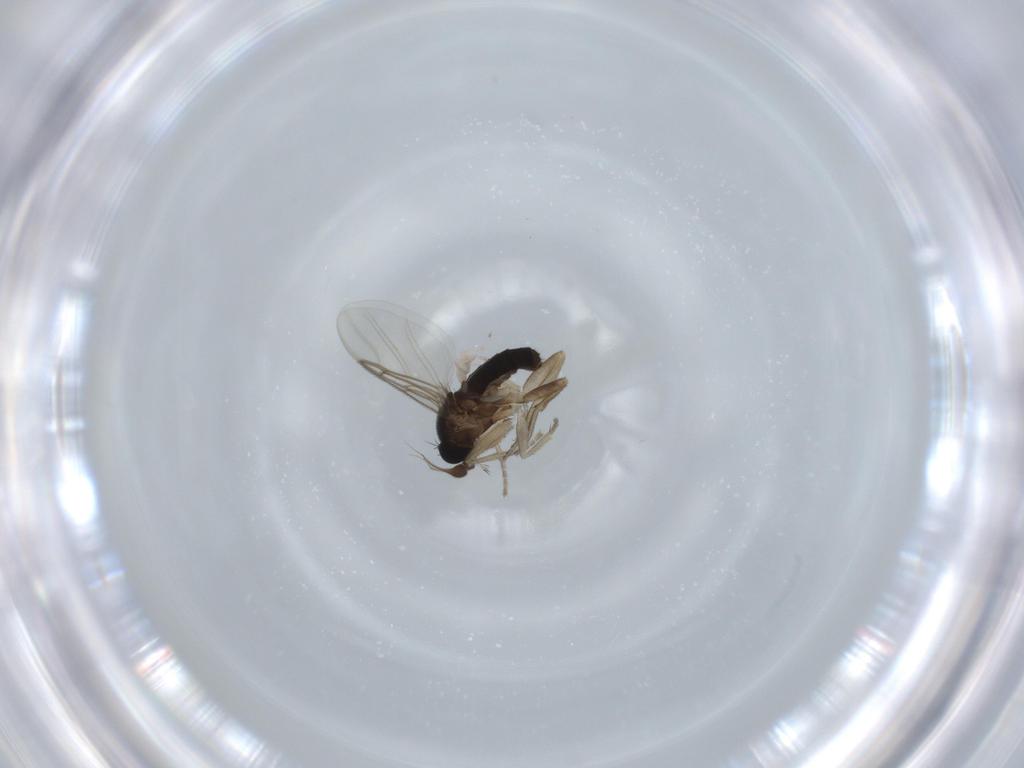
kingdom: Animalia
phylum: Arthropoda
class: Insecta
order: Diptera
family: Phoridae
